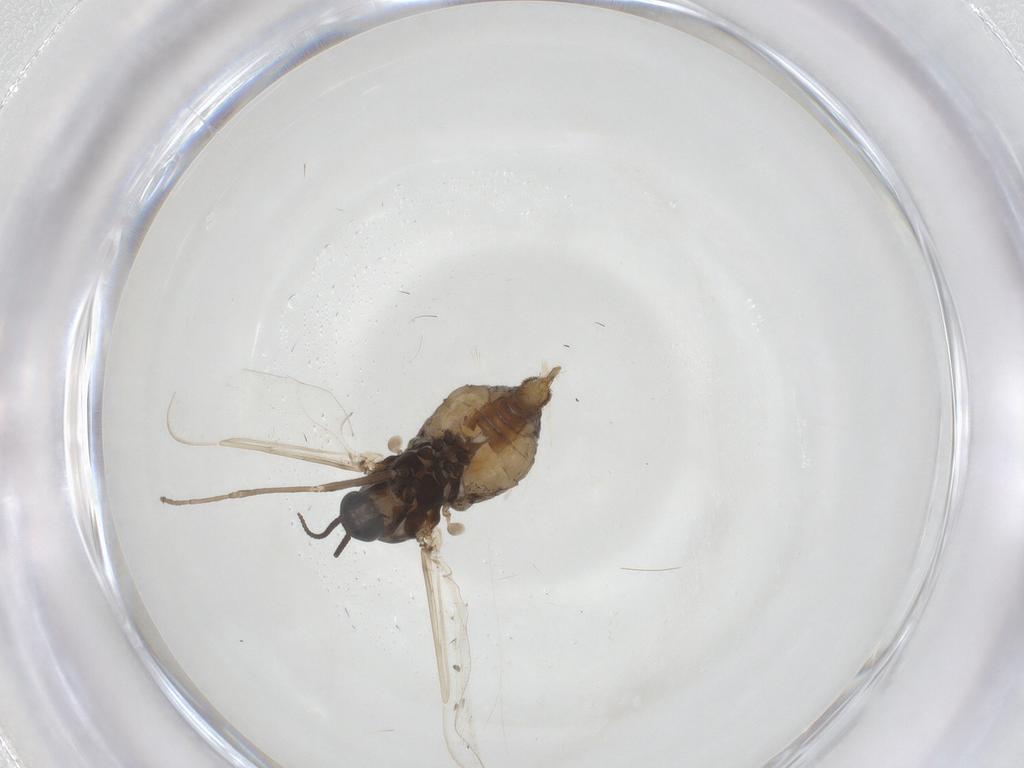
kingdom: Animalia
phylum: Arthropoda
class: Insecta
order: Diptera
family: Cecidomyiidae
